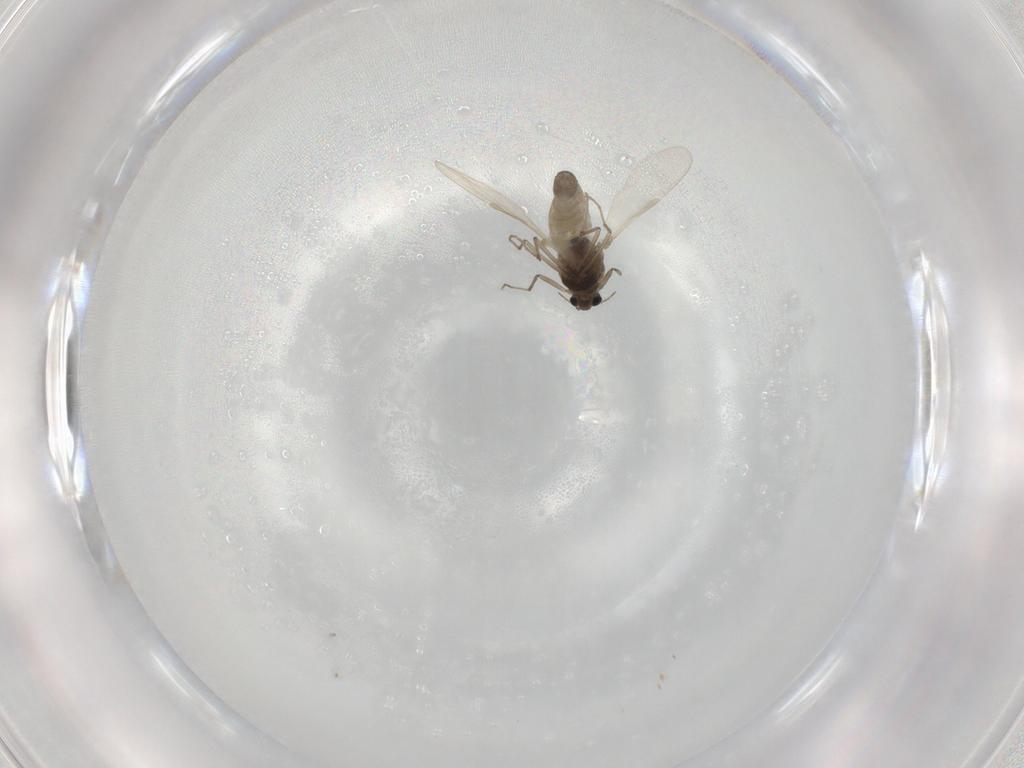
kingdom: Animalia
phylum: Arthropoda
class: Insecta
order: Diptera
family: Chironomidae
